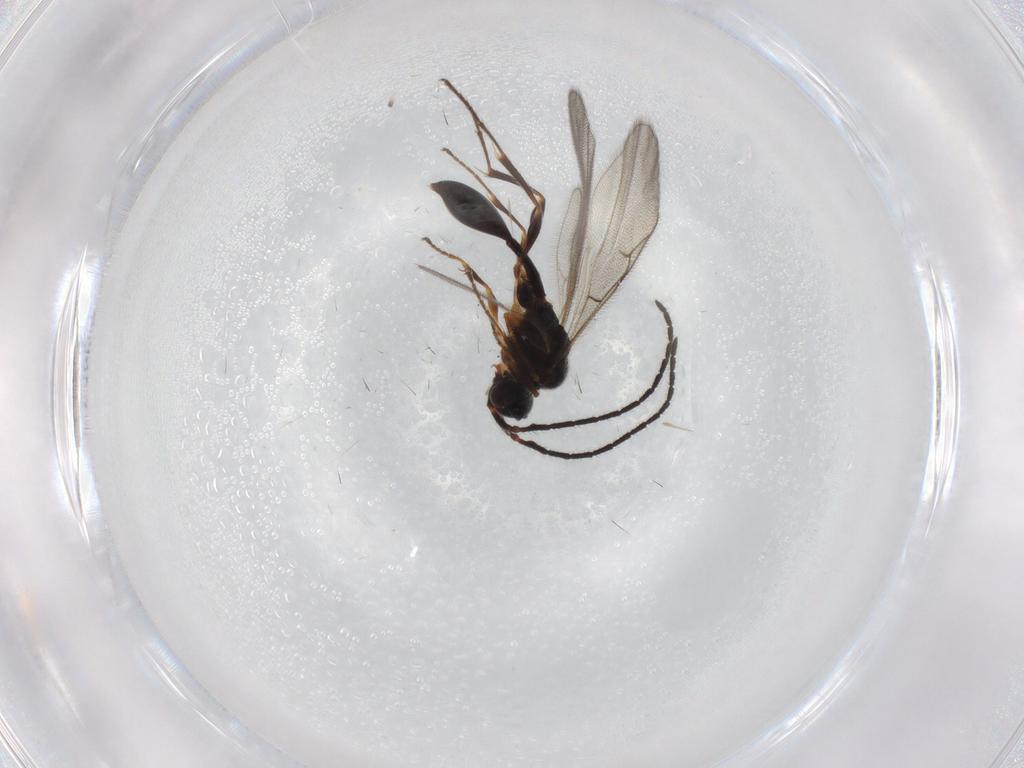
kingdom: Animalia
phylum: Arthropoda
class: Insecta
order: Hymenoptera
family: Diapriidae
